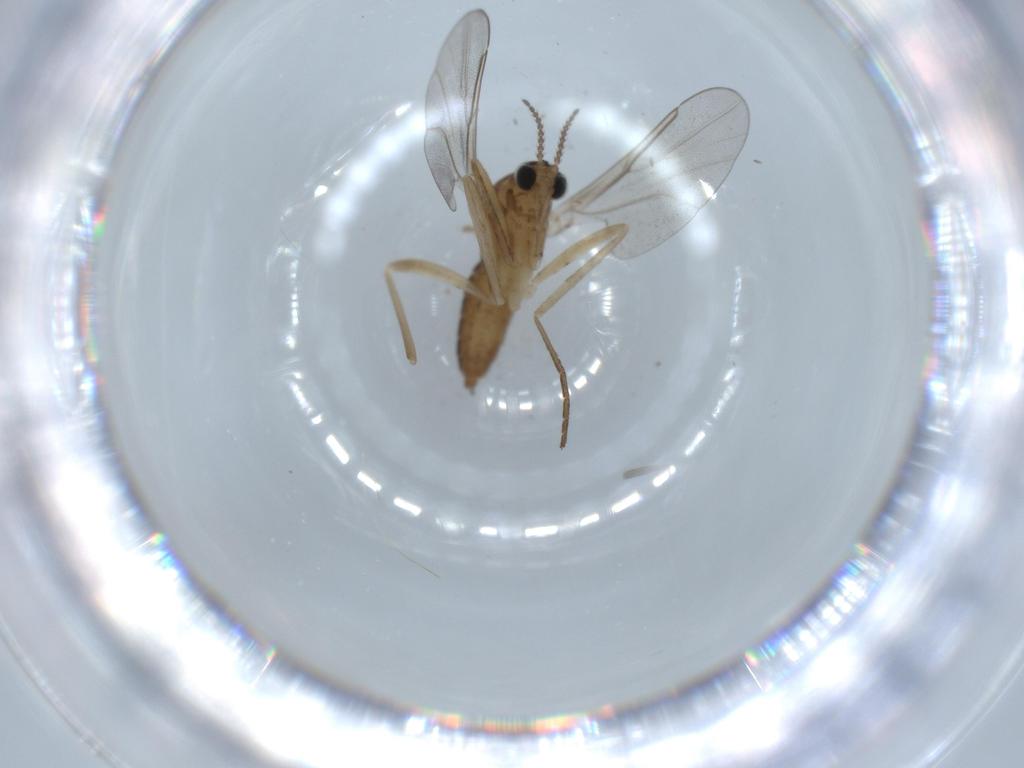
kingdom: Animalia
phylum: Arthropoda
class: Insecta
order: Diptera
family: Cecidomyiidae
